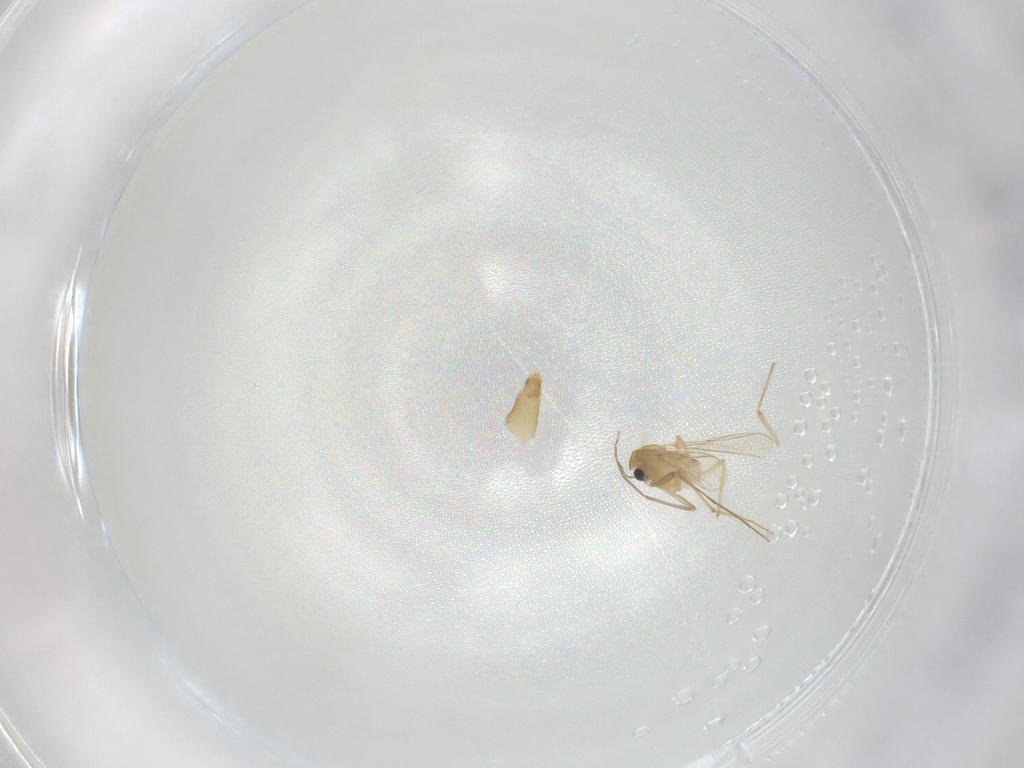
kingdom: Animalia
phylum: Arthropoda
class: Insecta
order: Diptera
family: Chironomidae
